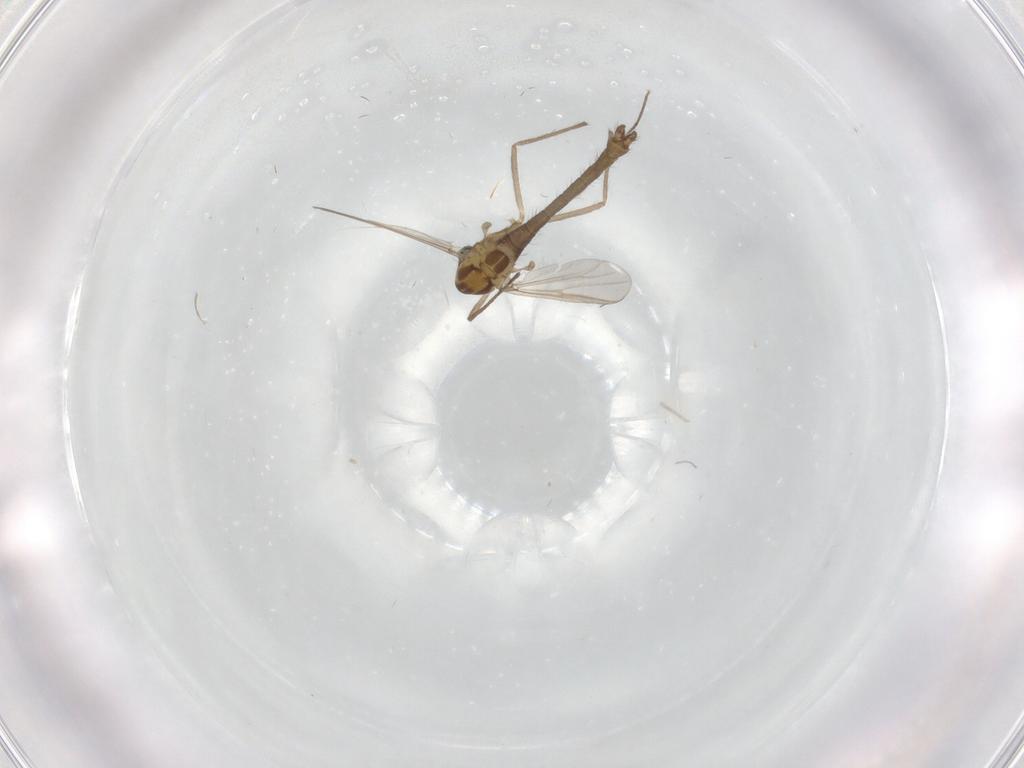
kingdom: Animalia
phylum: Arthropoda
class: Insecta
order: Diptera
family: Chironomidae
